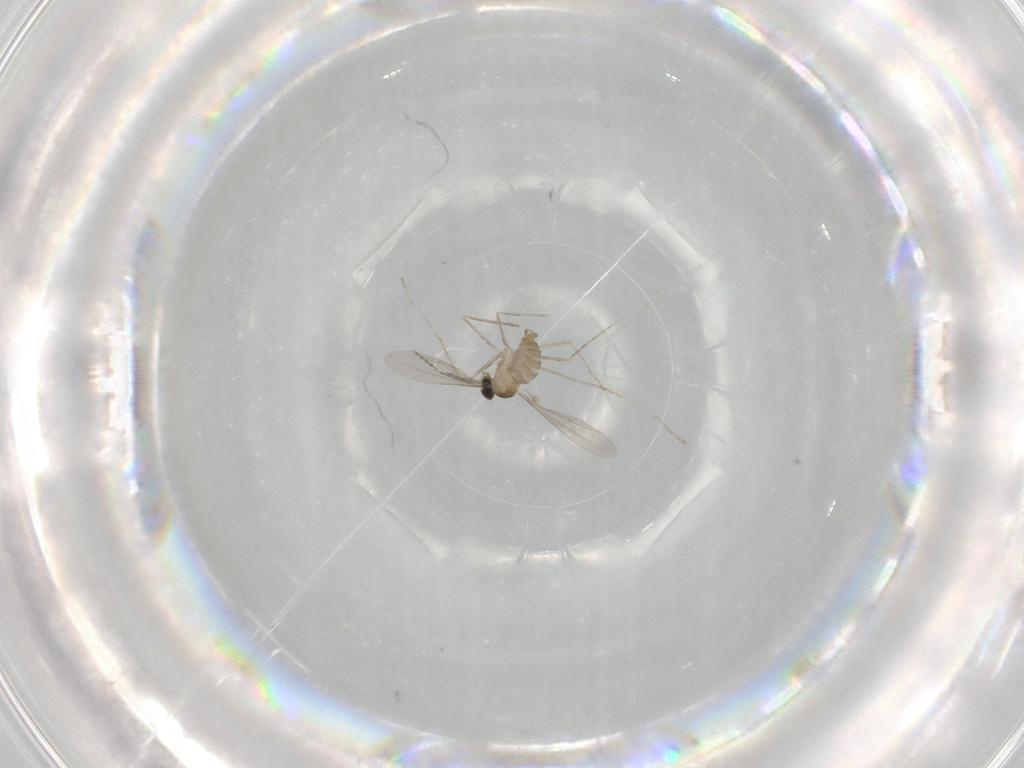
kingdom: Animalia
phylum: Arthropoda
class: Insecta
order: Diptera
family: Cecidomyiidae
